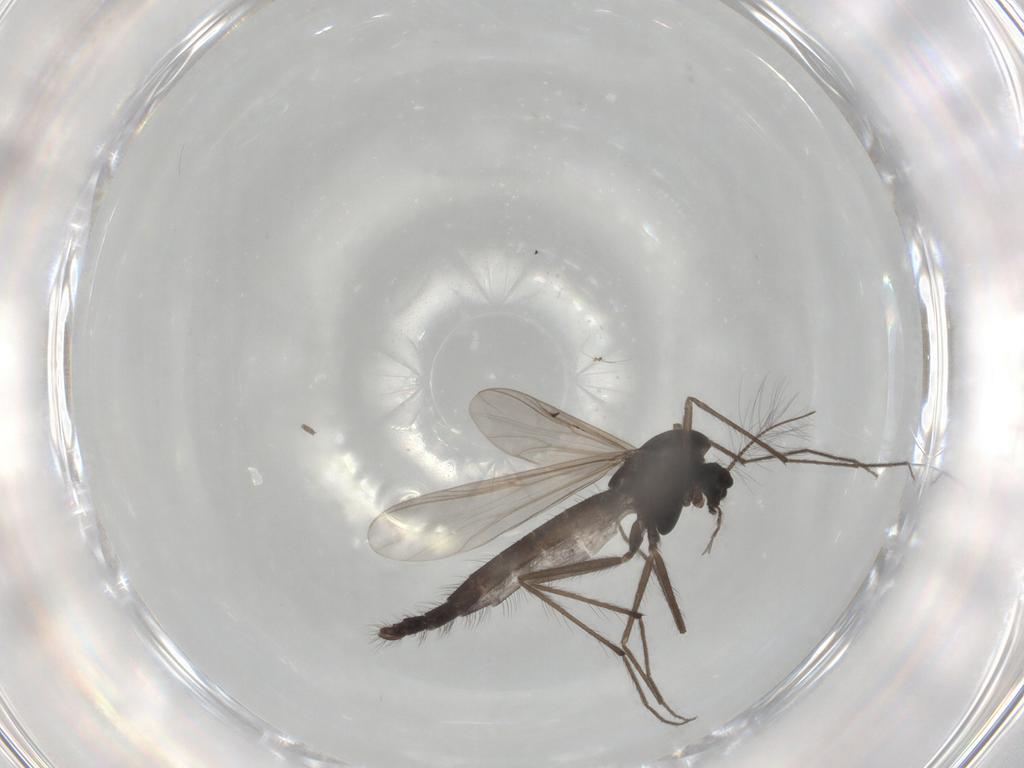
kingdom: Animalia
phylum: Arthropoda
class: Insecta
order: Diptera
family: Chironomidae
